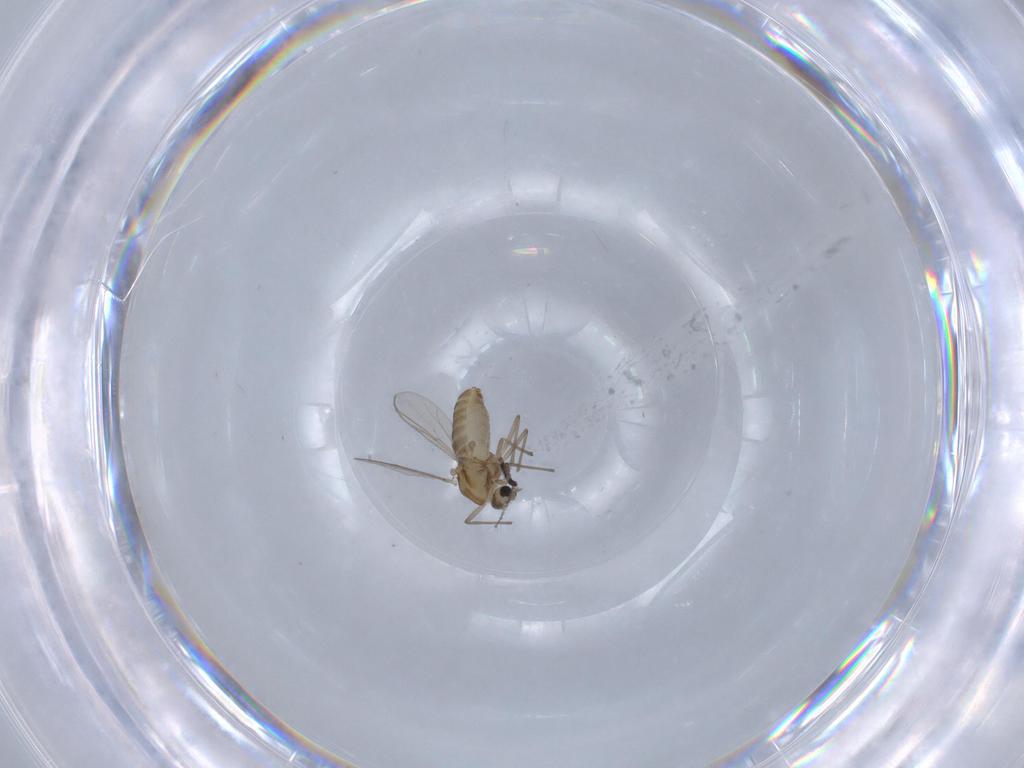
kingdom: Animalia
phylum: Arthropoda
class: Insecta
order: Diptera
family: Chironomidae
